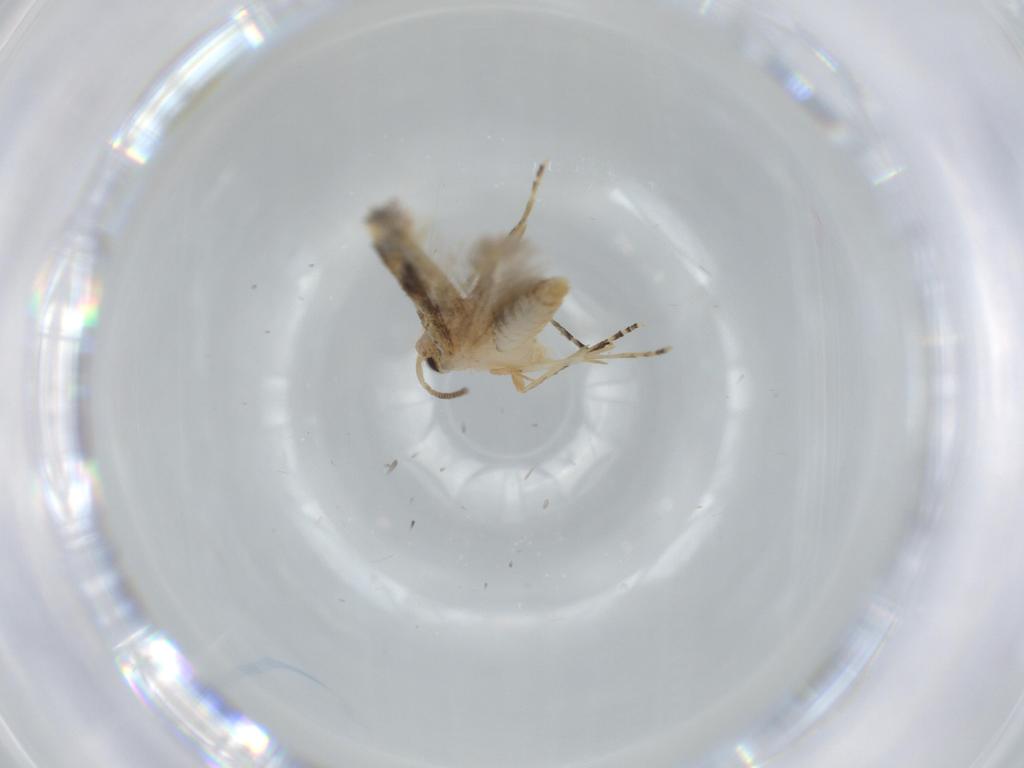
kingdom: Animalia
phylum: Arthropoda
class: Insecta
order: Lepidoptera
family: Bucculatricidae
